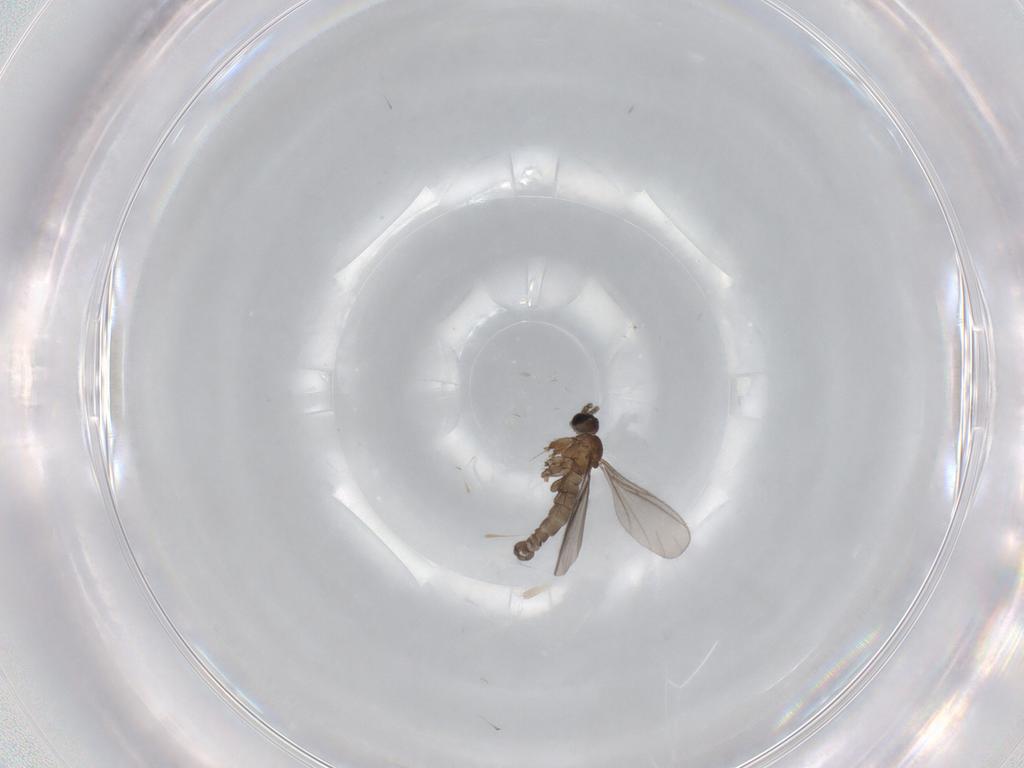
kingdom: Animalia
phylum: Arthropoda
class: Insecta
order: Diptera
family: Sciaridae
